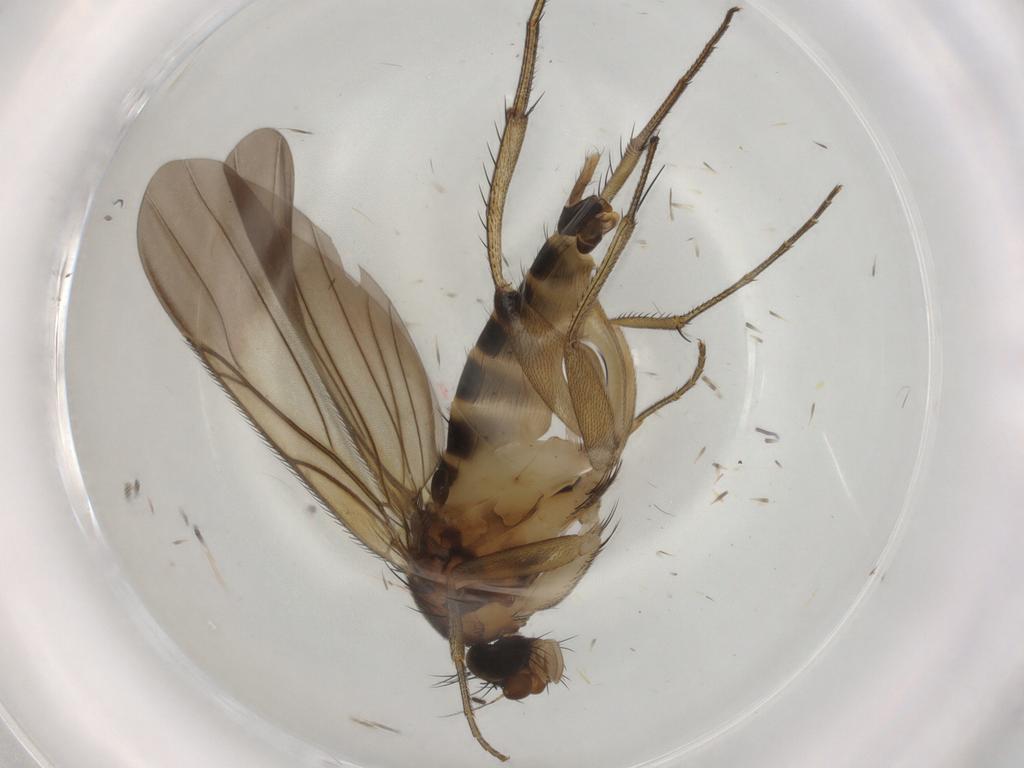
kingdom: Animalia
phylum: Arthropoda
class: Insecta
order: Diptera
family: Phoridae
